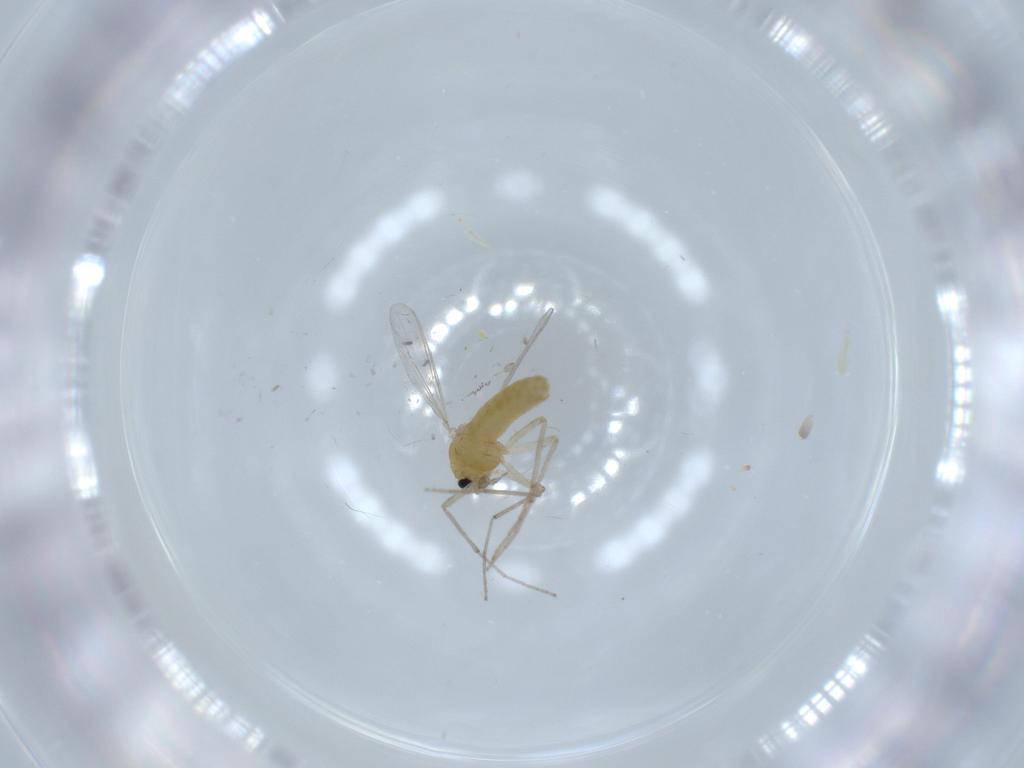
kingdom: Animalia
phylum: Arthropoda
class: Insecta
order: Diptera
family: Chironomidae
